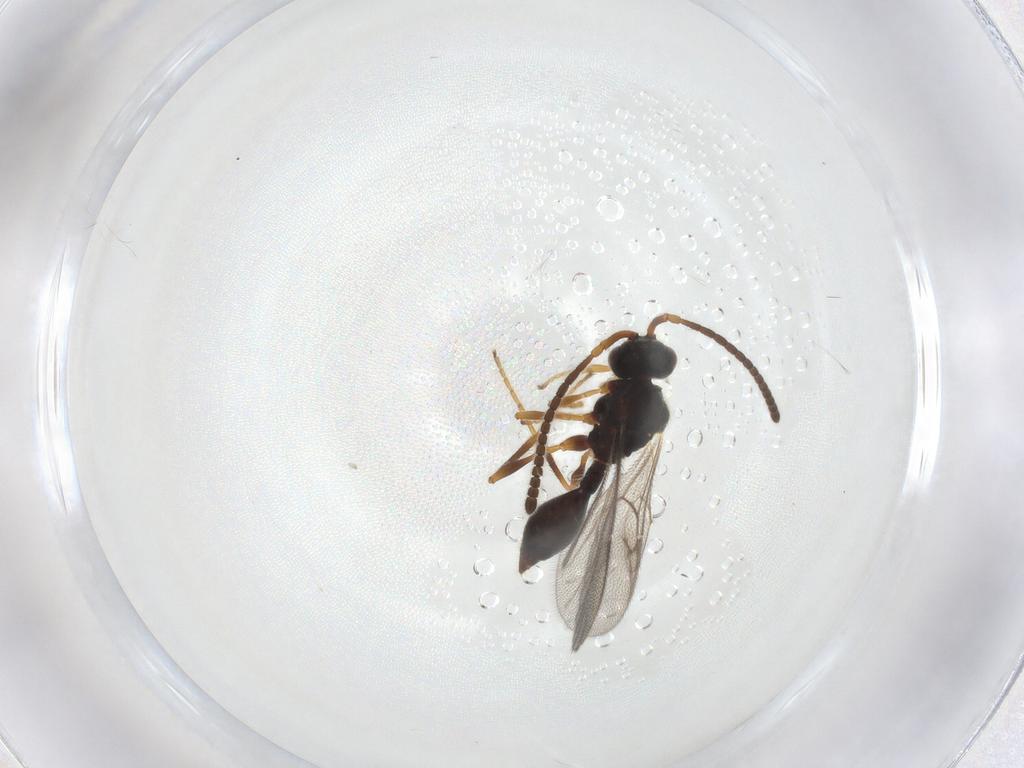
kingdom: Animalia
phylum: Arthropoda
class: Insecta
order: Hymenoptera
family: Diapriidae
